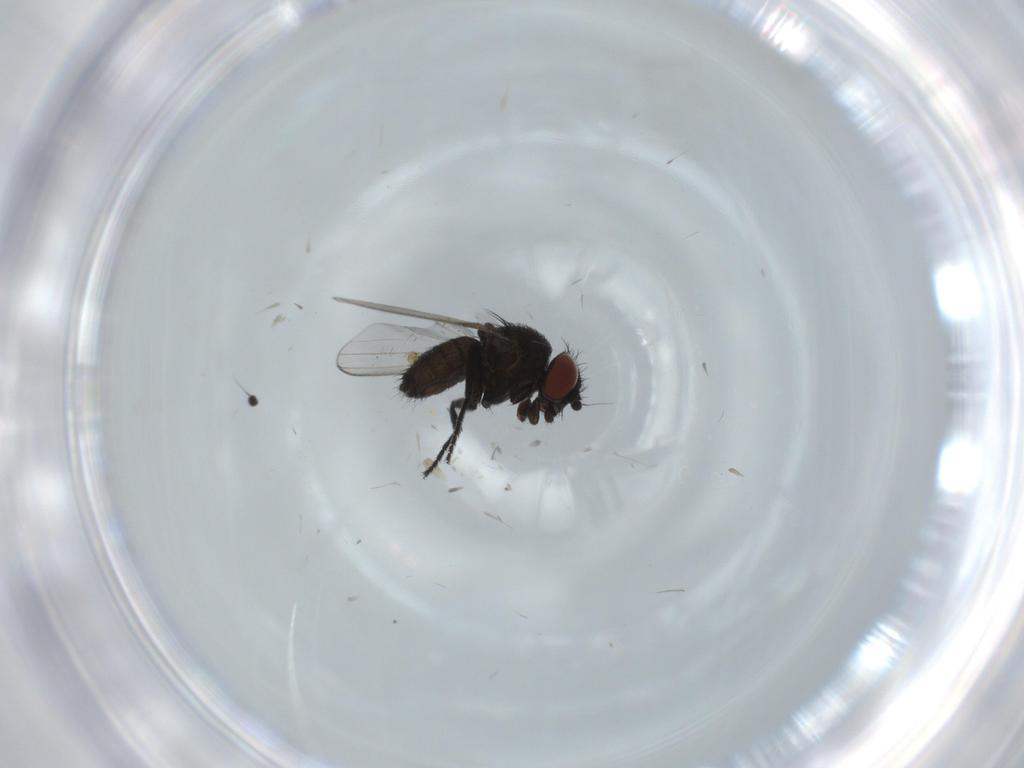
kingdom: Animalia
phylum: Arthropoda
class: Insecta
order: Diptera
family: Milichiidae
